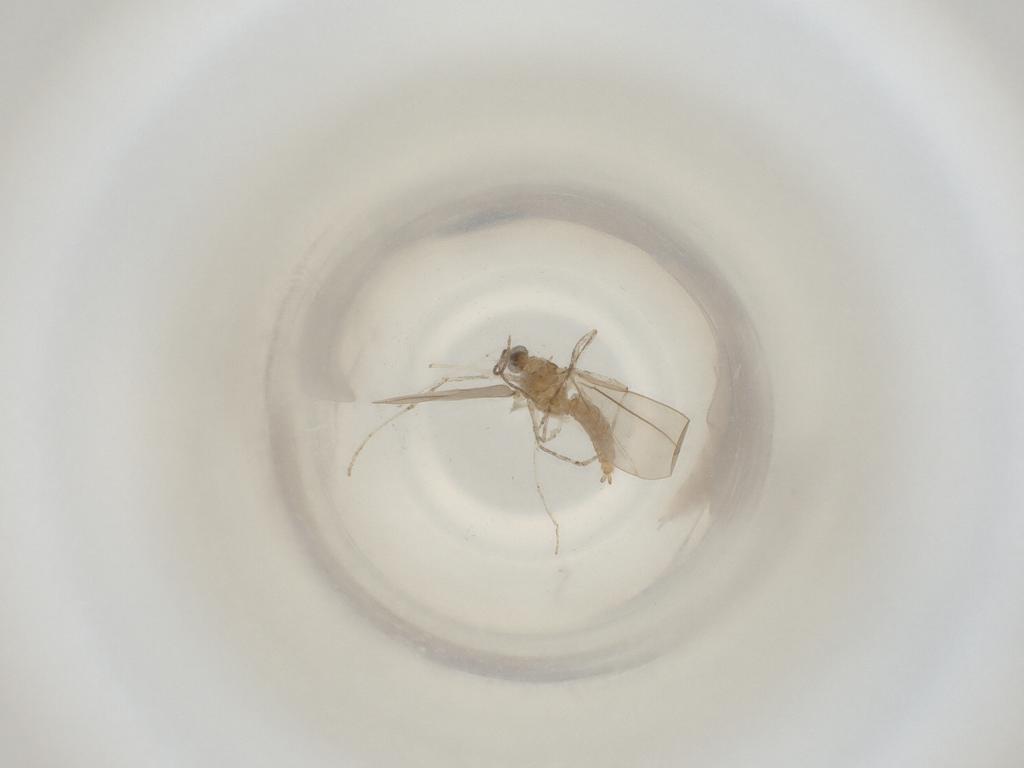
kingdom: Animalia
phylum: Arthropoda
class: Insecta
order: Diptera
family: Cecidomyiidae
